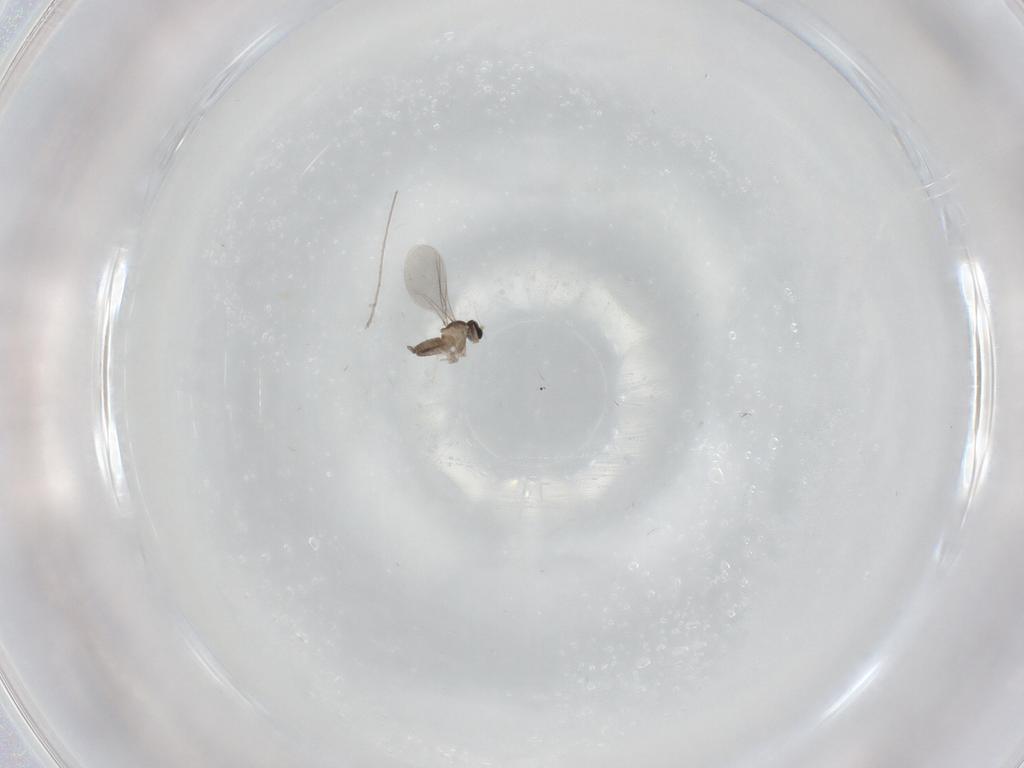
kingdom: Animalia
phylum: Arthropoda
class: Insecta
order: Diptera
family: Cecidomyiidae
